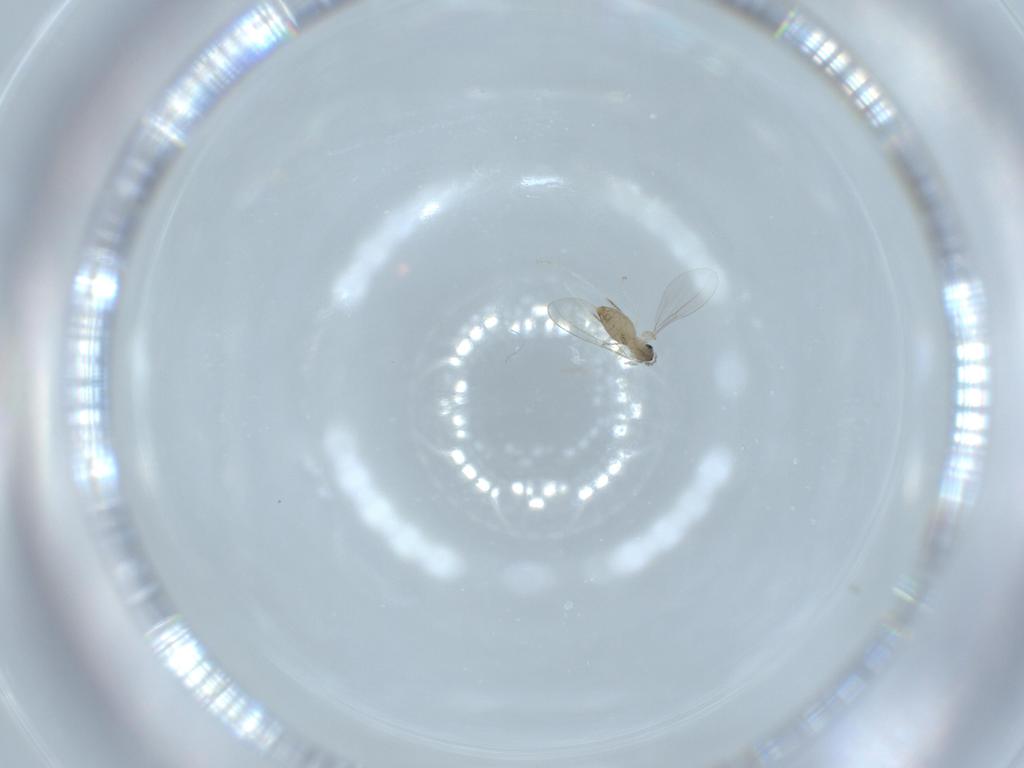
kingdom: Animalia
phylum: Arthropoda
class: Insecta
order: Diptera
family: Cecidomyiidae
